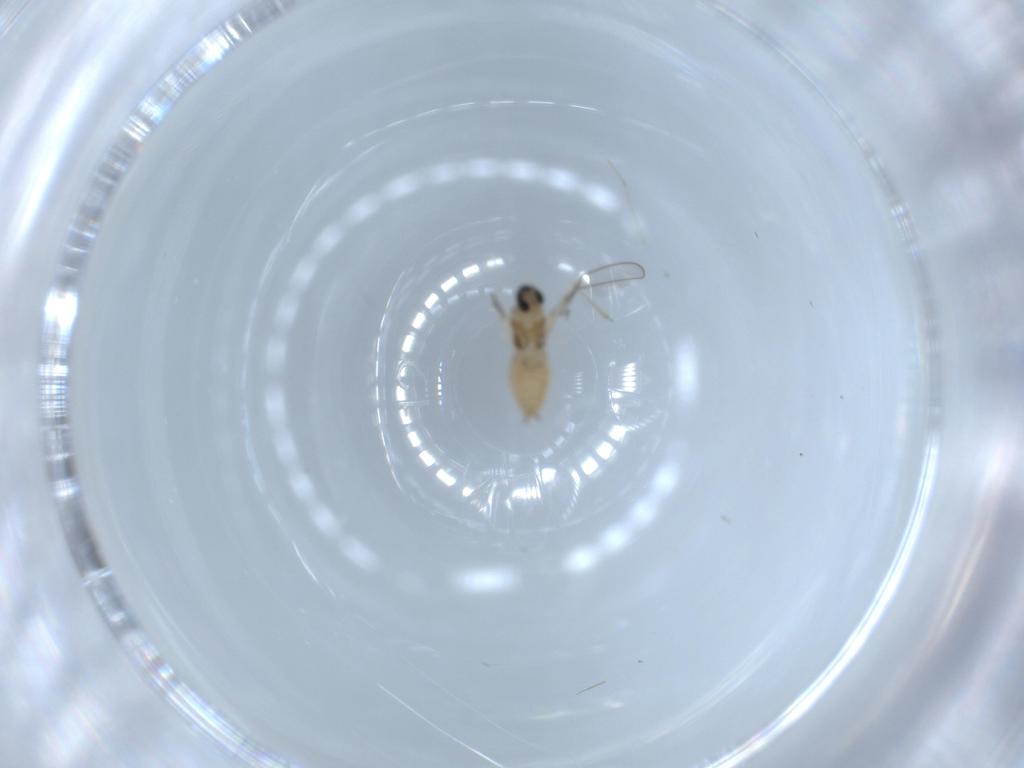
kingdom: Animalia
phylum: Arthropoda
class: Insecta
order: Diptera
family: Cecidomyiidae
